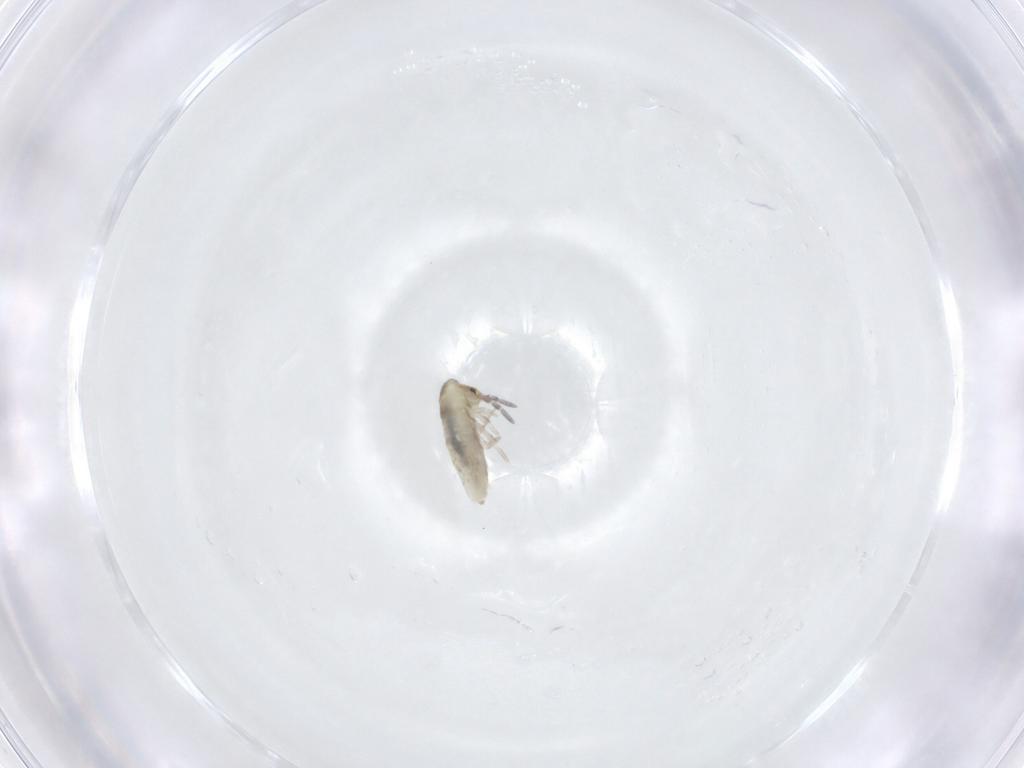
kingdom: Animalia
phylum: Arthropoda
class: Collembola
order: Entomobryomorpha
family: Entomobryidae
